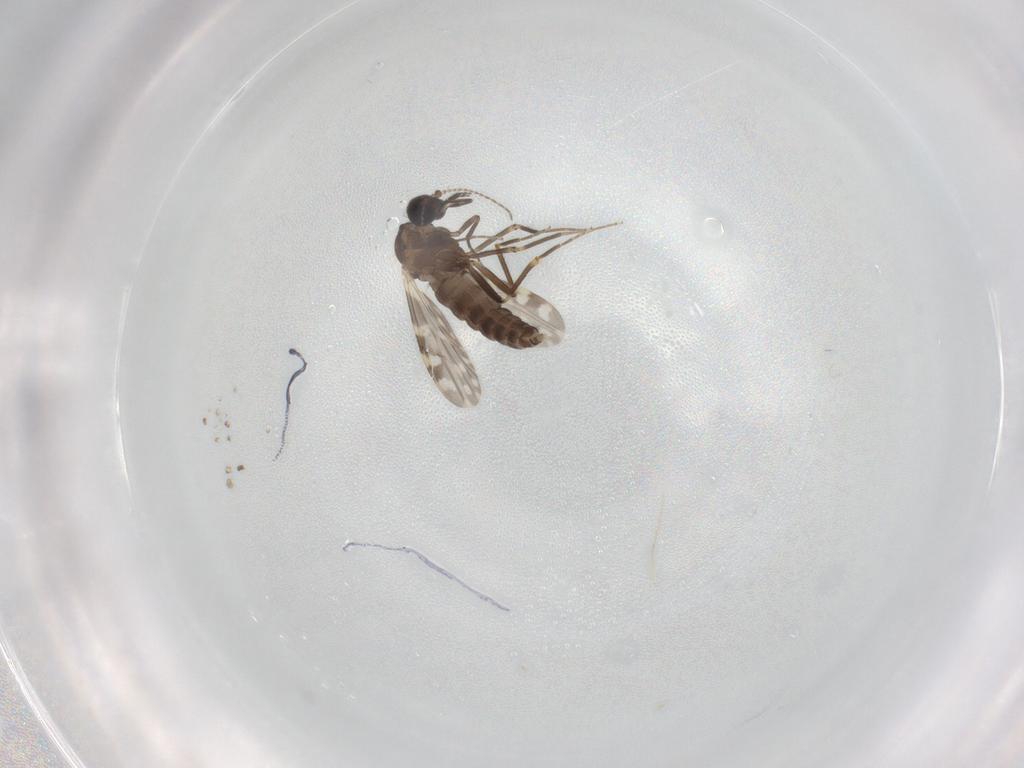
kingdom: Animalia
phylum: Arthropoda
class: Insecta
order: Diptera
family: Ceratopogonidae
